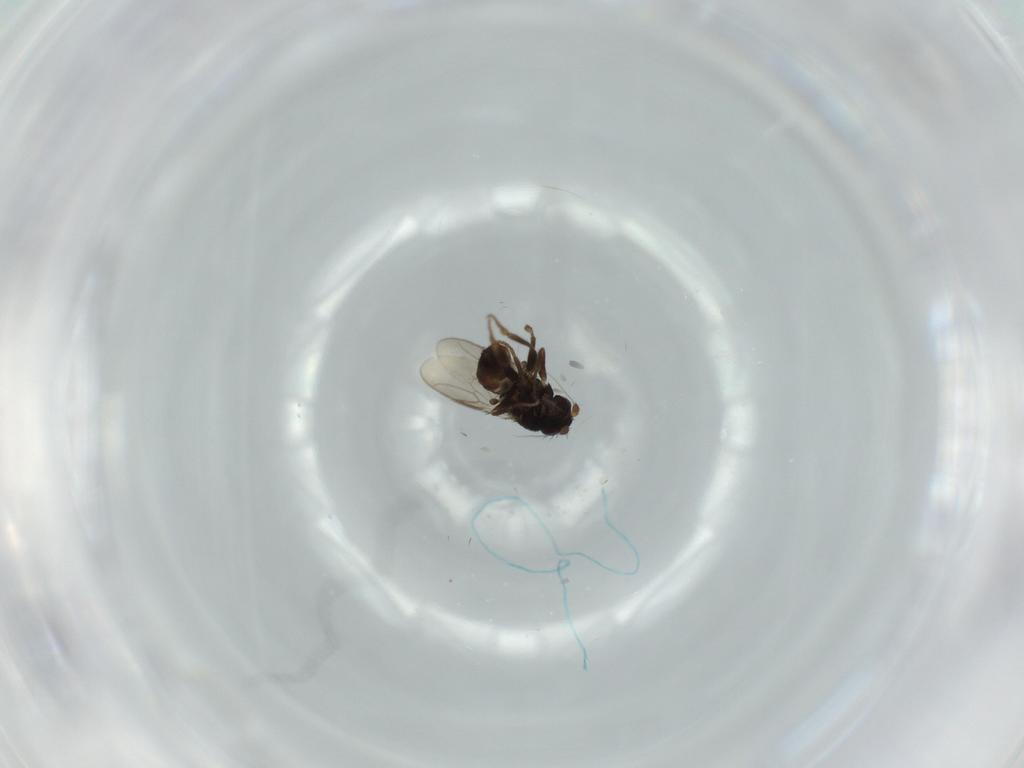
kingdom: Animalia
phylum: Arthropoda
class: Insecta
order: Diptera
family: Sphaeroceridae
